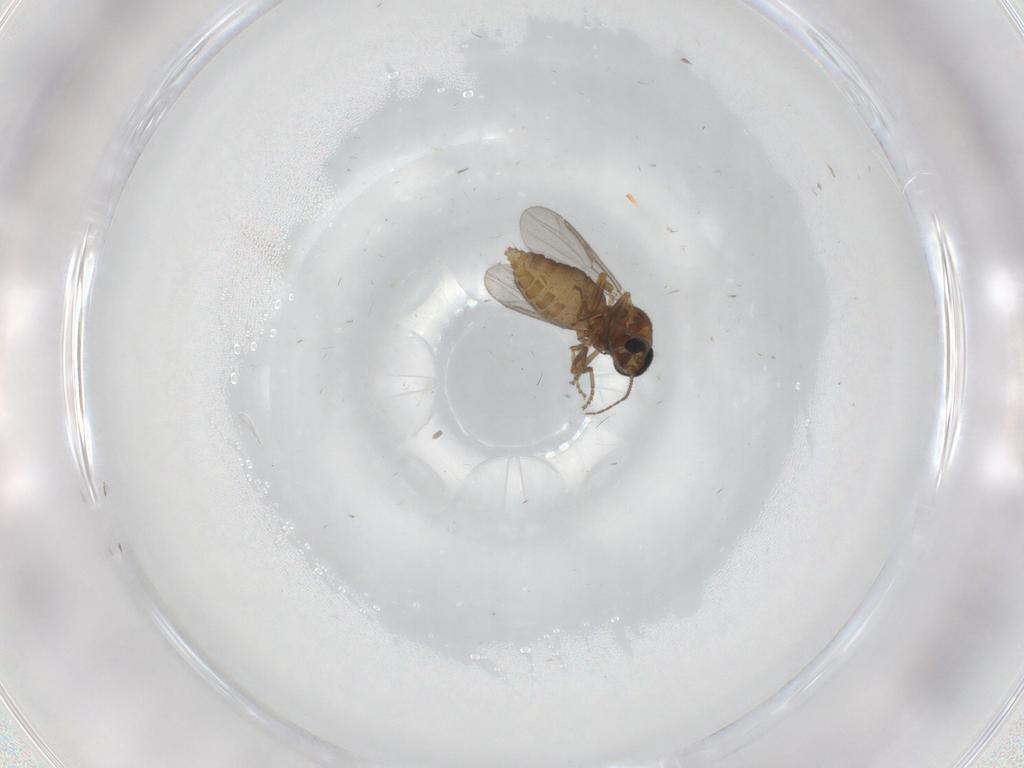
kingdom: Animalia
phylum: Arthropoda
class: Insecta
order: Diptera
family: Ceratopogonidae
